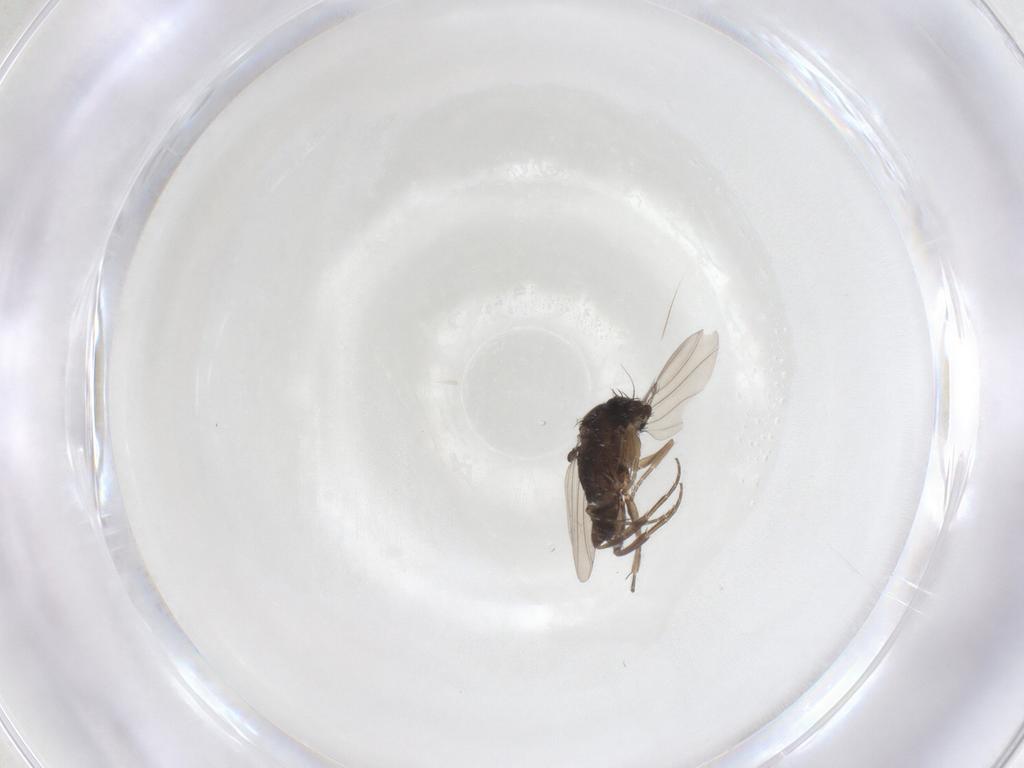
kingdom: Animalia
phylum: Arthropoda
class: Insecta
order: Diptera
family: Phoridae
